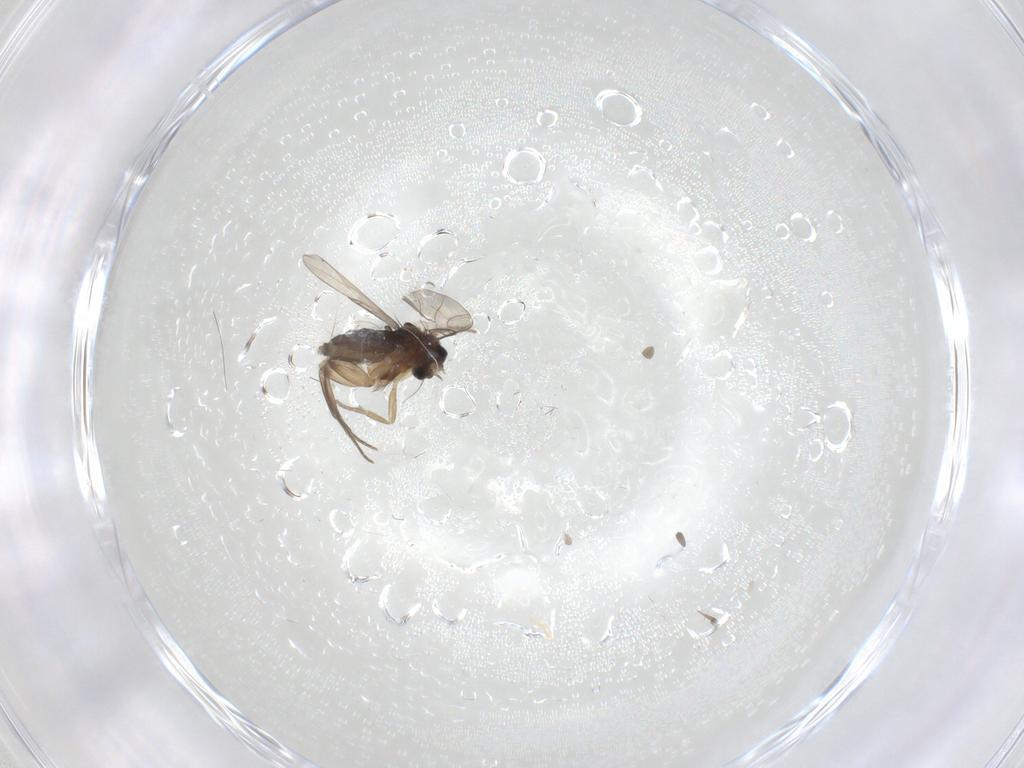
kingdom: Animalia
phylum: Arthropoda
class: Insecta
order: Diptera
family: Phoridae
